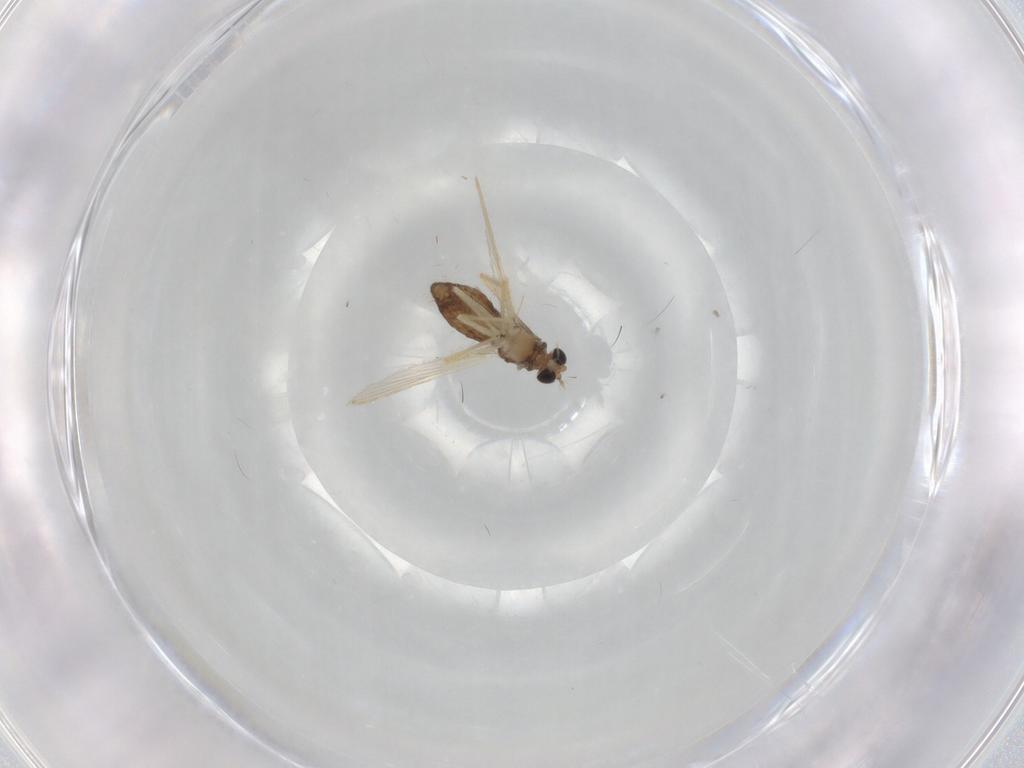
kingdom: Animalia
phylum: Arthropoda
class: Insecta
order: Diptera
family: Chironomidae
